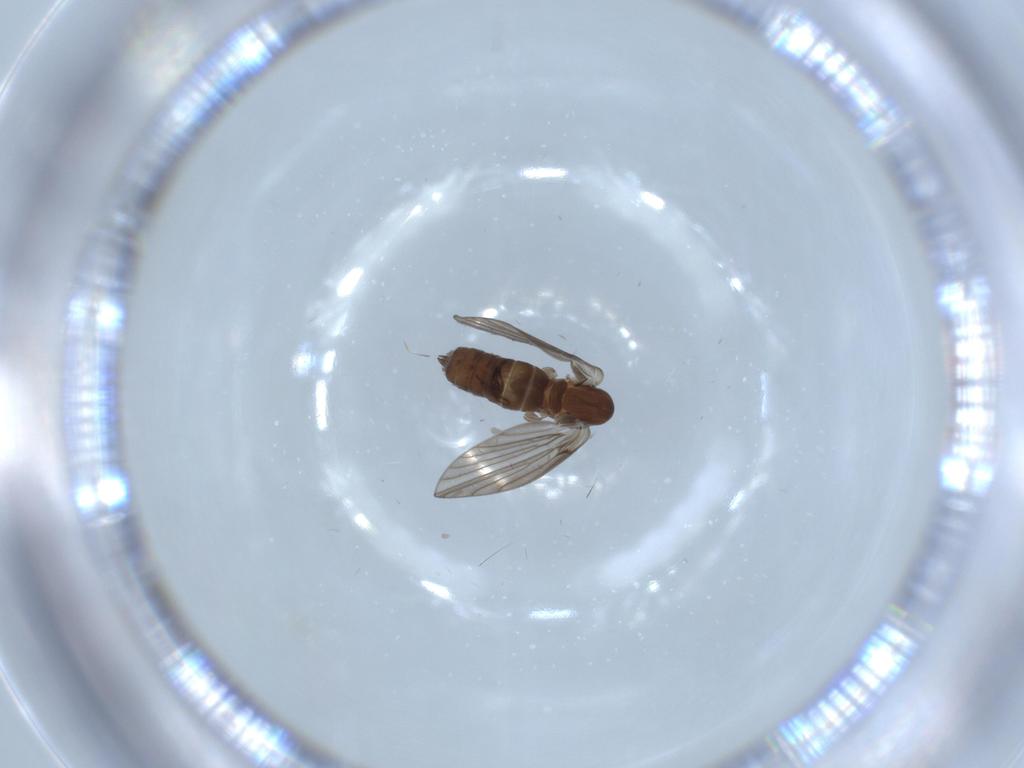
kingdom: Animalia
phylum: Arthropoda
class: Insecta
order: Diptera
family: Psychodidae
